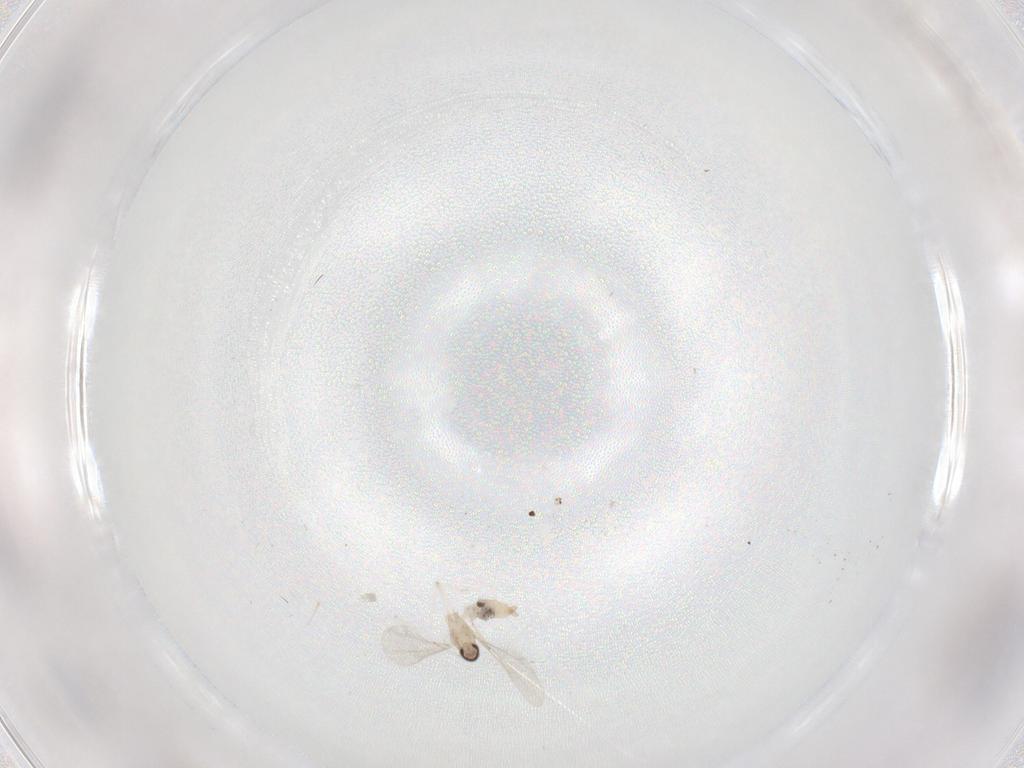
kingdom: Animalia
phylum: Arthropoda
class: Insecta
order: Diptera
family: Cecidomyiidae
